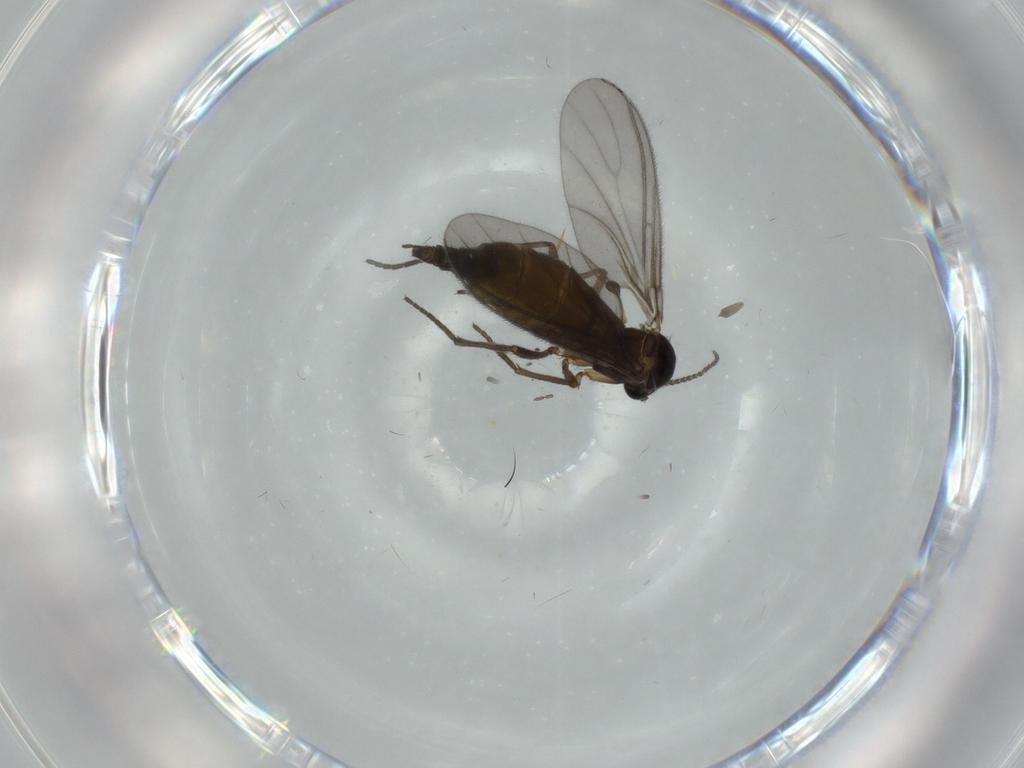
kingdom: Animalia
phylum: Arthropoda
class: Insecta
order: Diptera
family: Sciaridae
